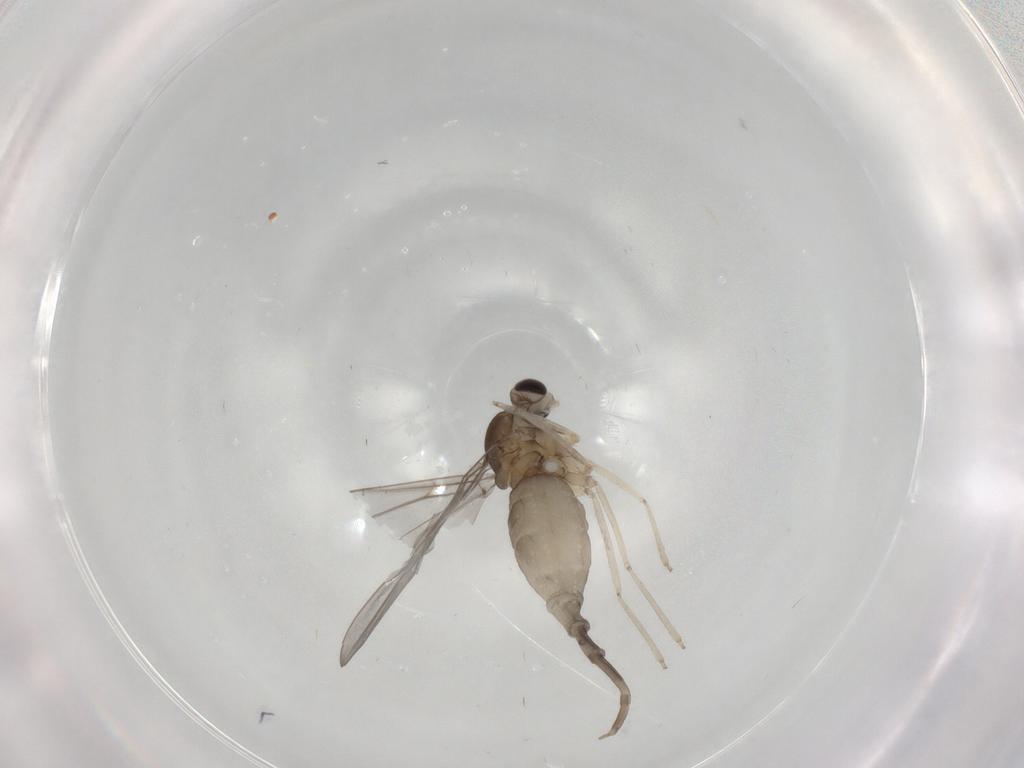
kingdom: Animalia
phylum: Arthropoda
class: Insecta
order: Diptera
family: Cecidomyiidae
